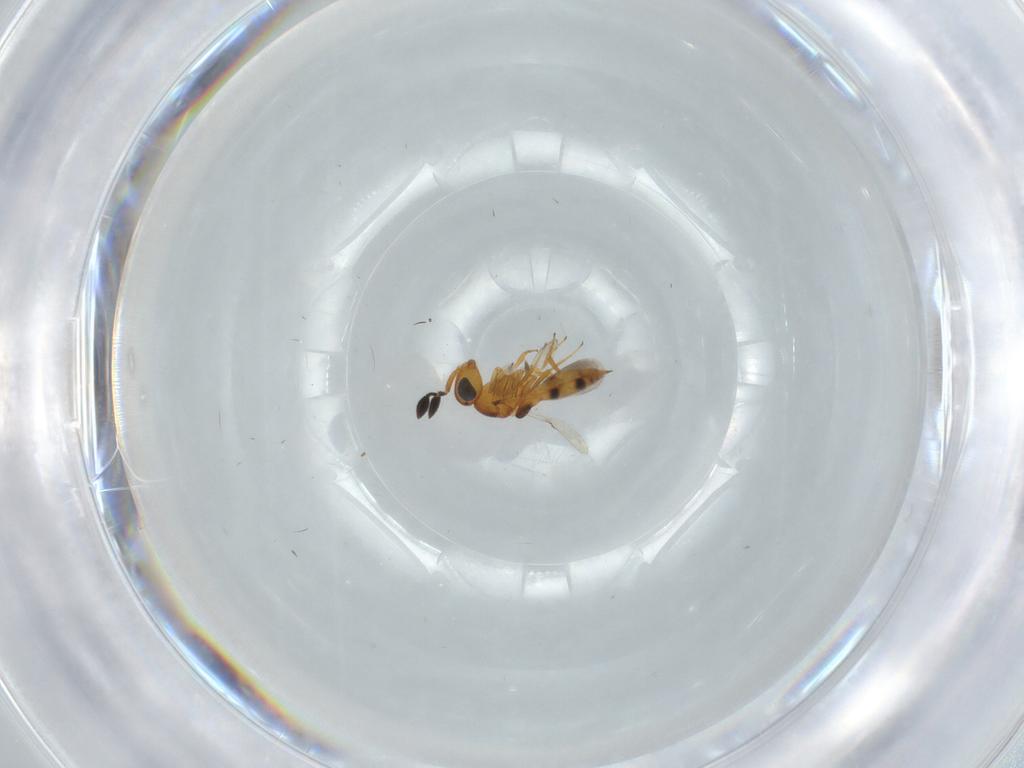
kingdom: Animalia
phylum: Arthropoda
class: Insecta
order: Hymenoptera
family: Scelionidae
